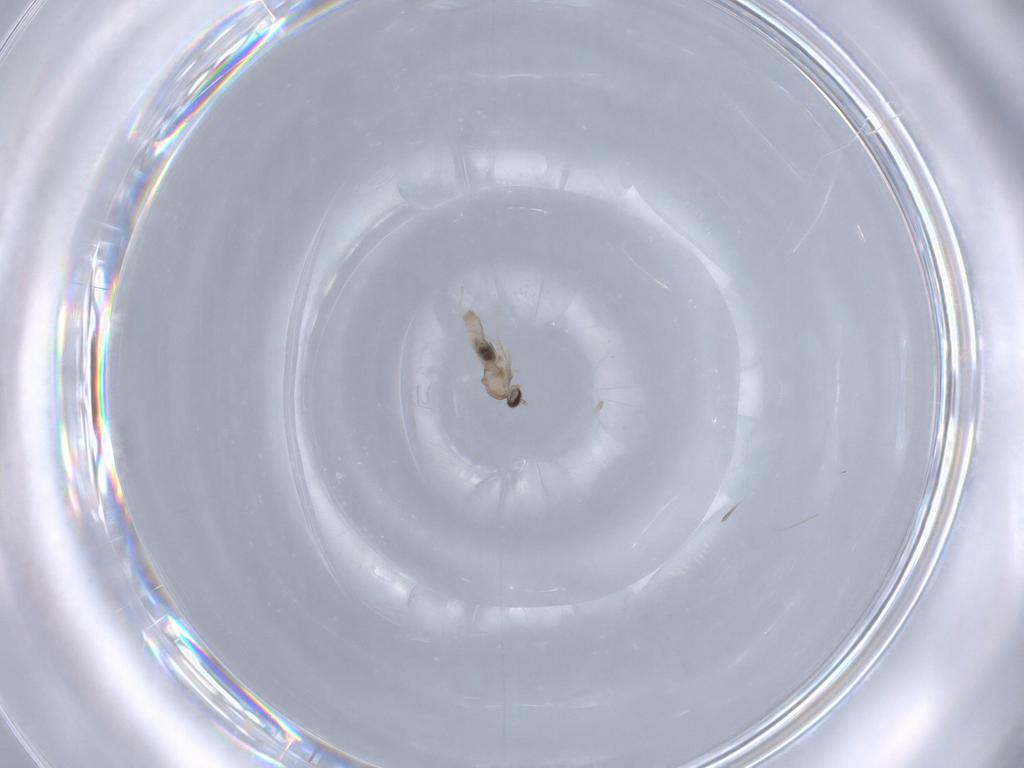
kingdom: Animalia
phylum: Arthropoda
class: Insecta
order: Diptera
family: Cecidomyiidae
